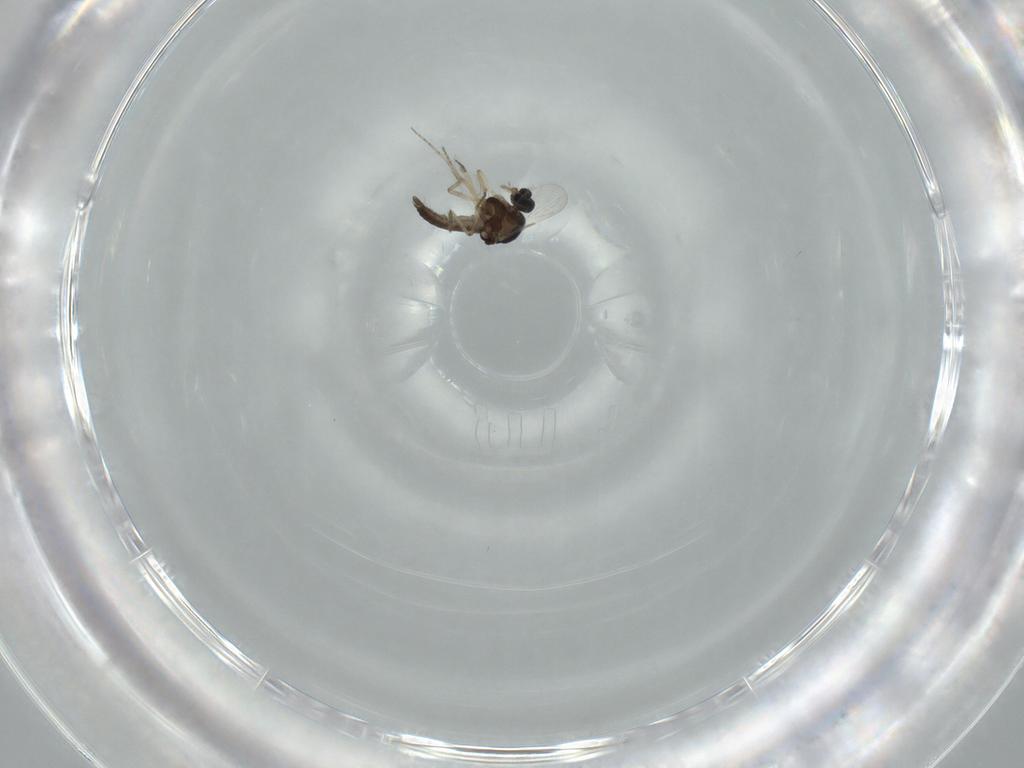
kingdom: Animalia
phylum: Arthropoda
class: Insecta
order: Diptera
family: Ceratopogonidae
